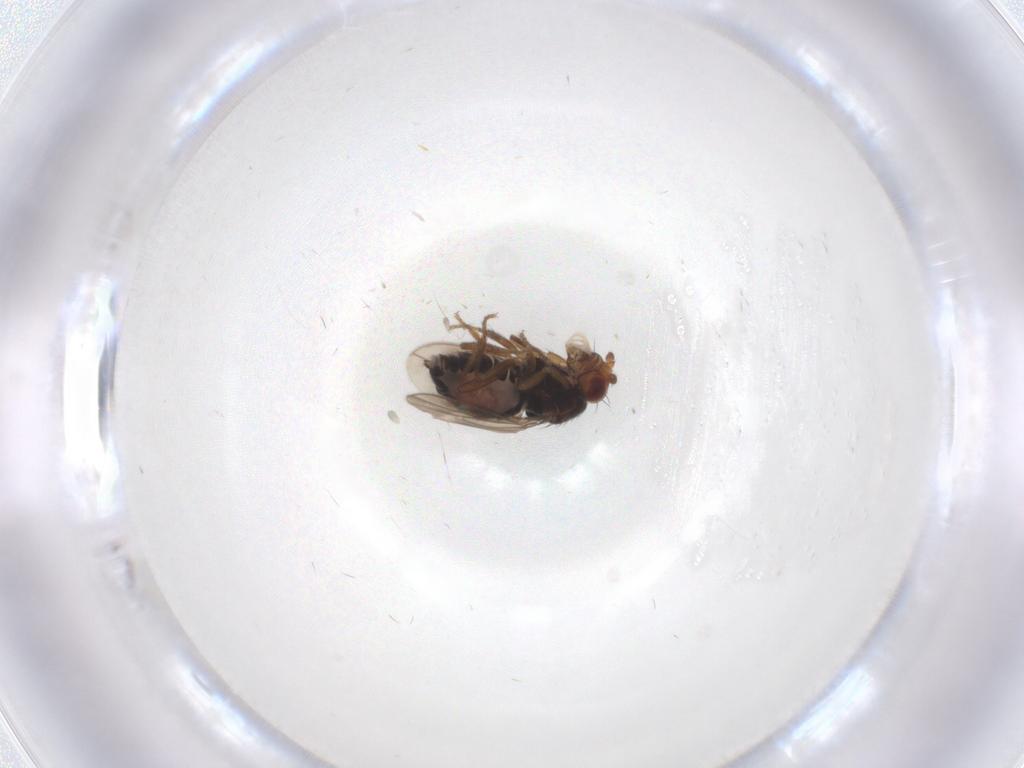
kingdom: Animalia
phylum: Arthropoda
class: Insecta
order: Diptera
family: Sphaeroceridae
